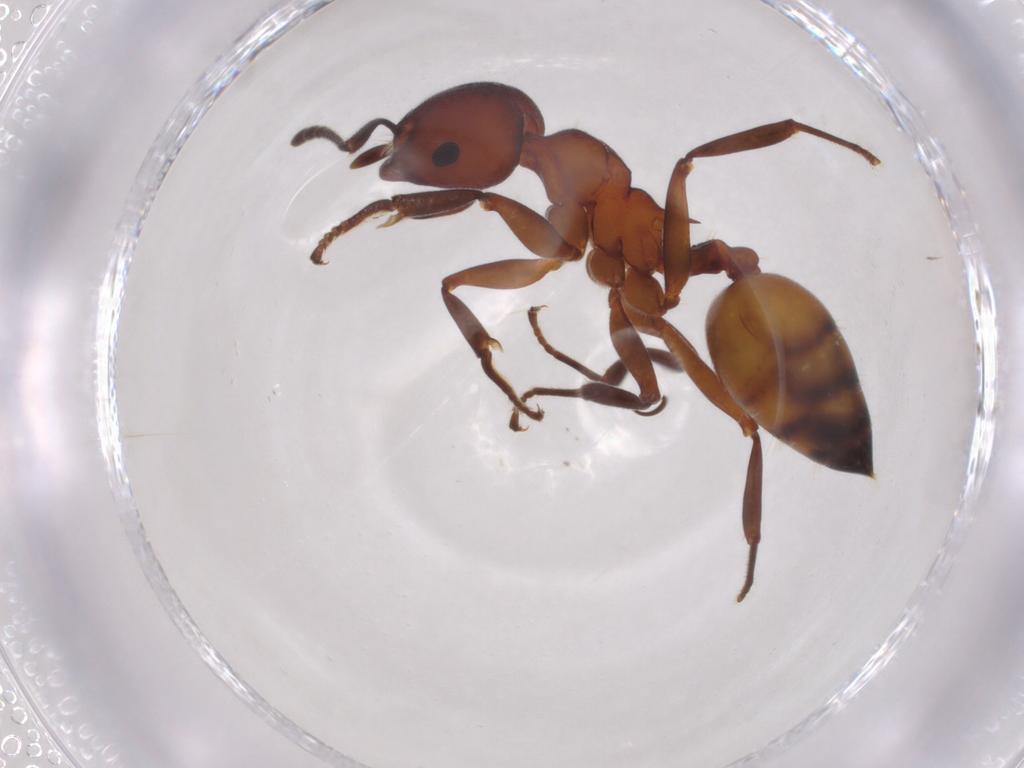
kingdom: Animalia
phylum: Arthropoda
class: Insecta
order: Hymenoptera
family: Formicidae
